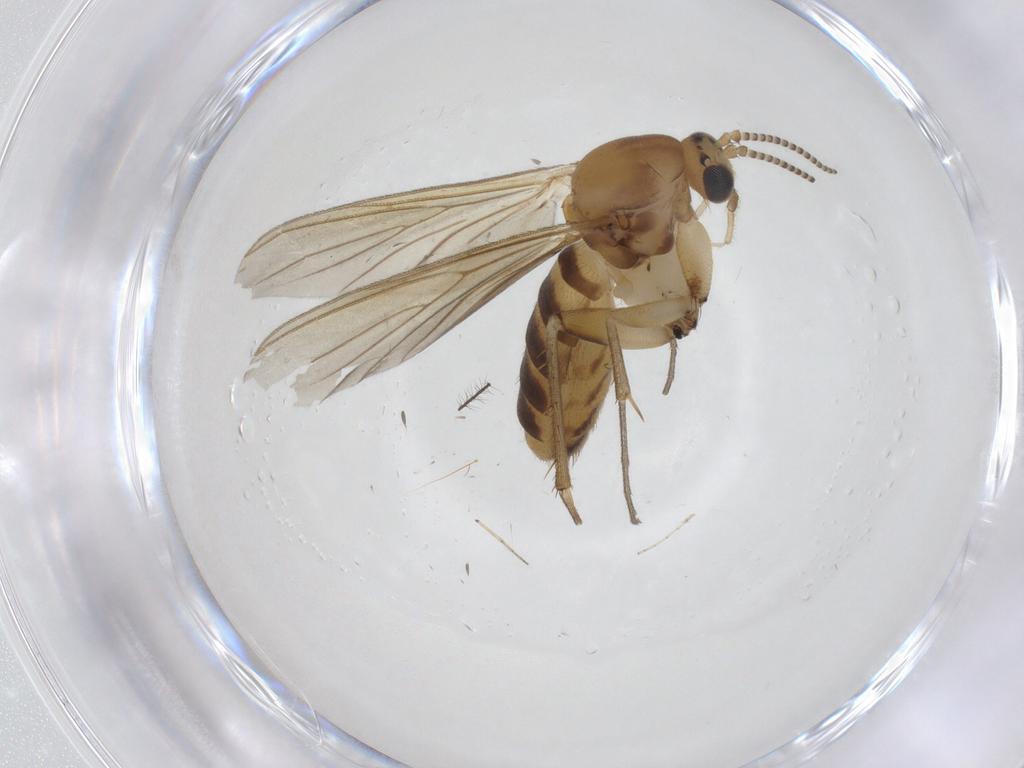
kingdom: Animalia
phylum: Arthropoda
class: Insecta
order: Diptera
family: Mycetophilidae
